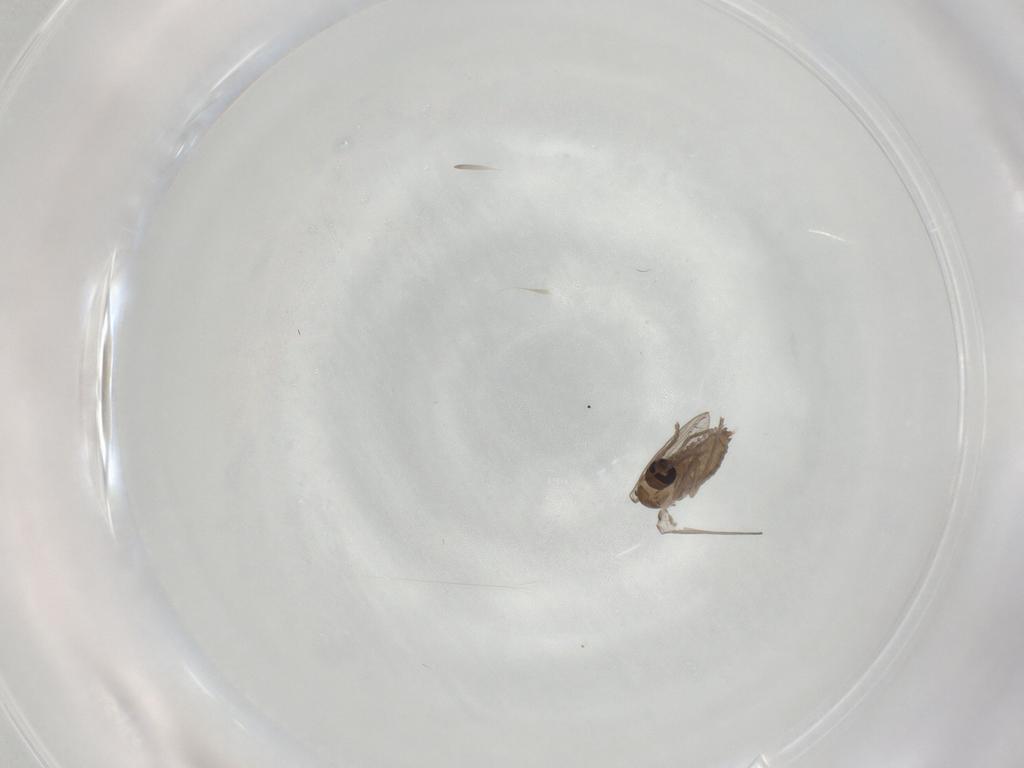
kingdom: Animalia
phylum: Arthropoda
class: Insecta
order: Diptera
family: Psychodidae
